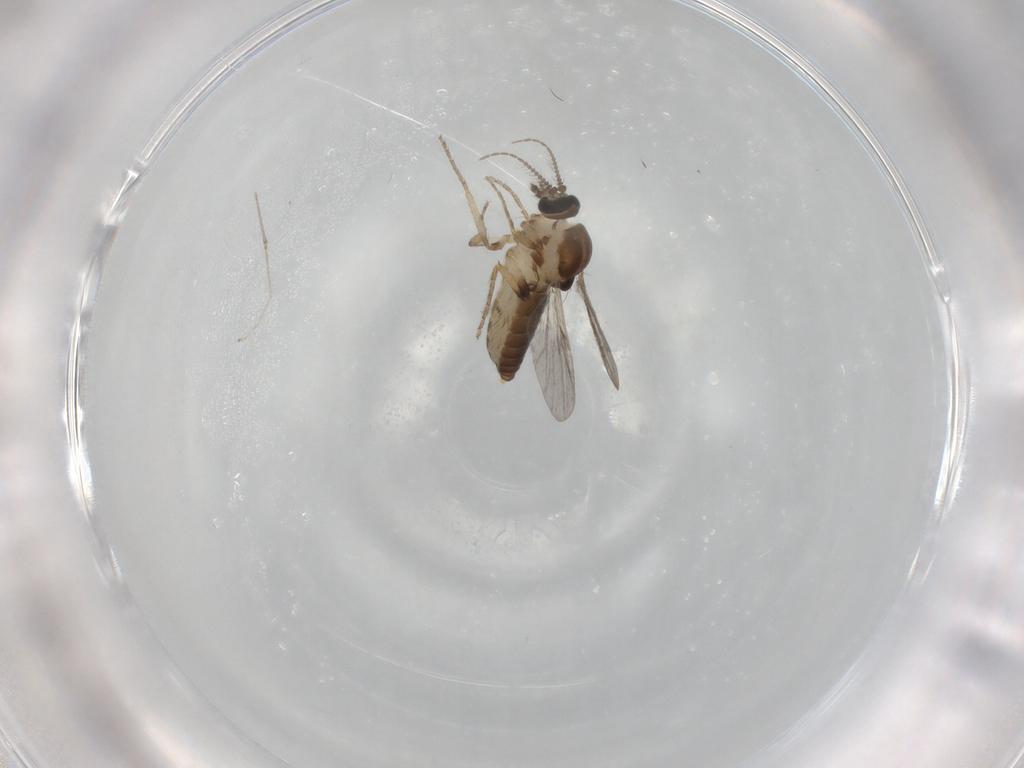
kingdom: Animalia
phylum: Arthropoda
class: Insecta
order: Diptera
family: Ceratopogonidae
